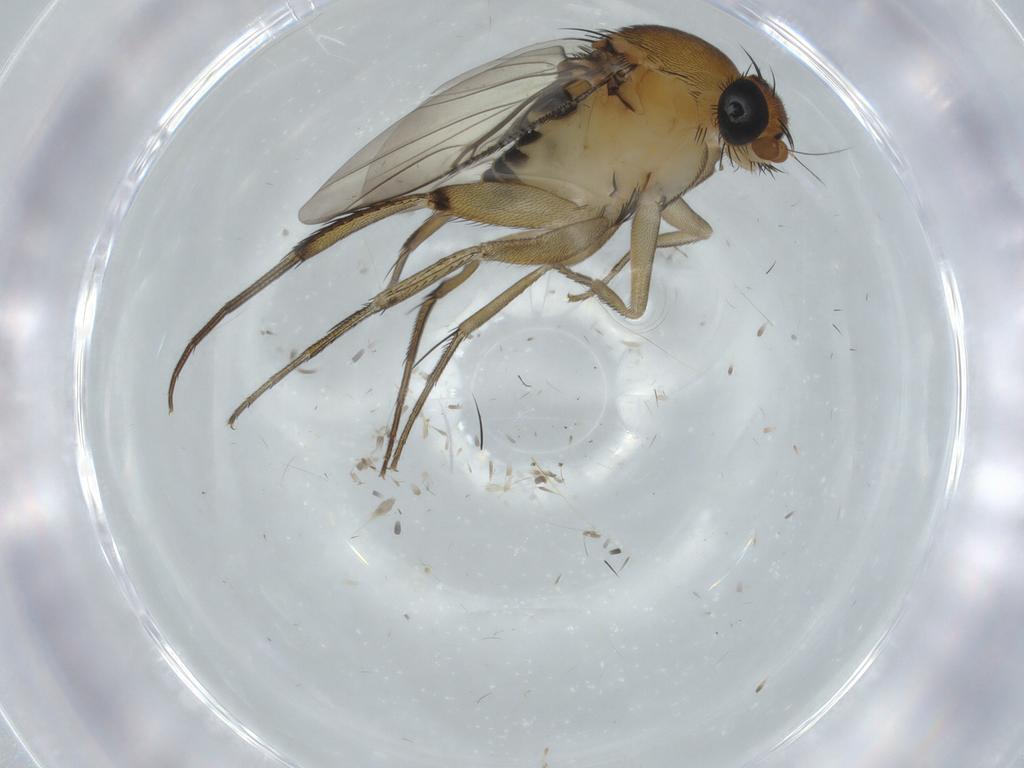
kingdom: Animalia
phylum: Arthropoda
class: Insecta
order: Diptera
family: Phoridae
